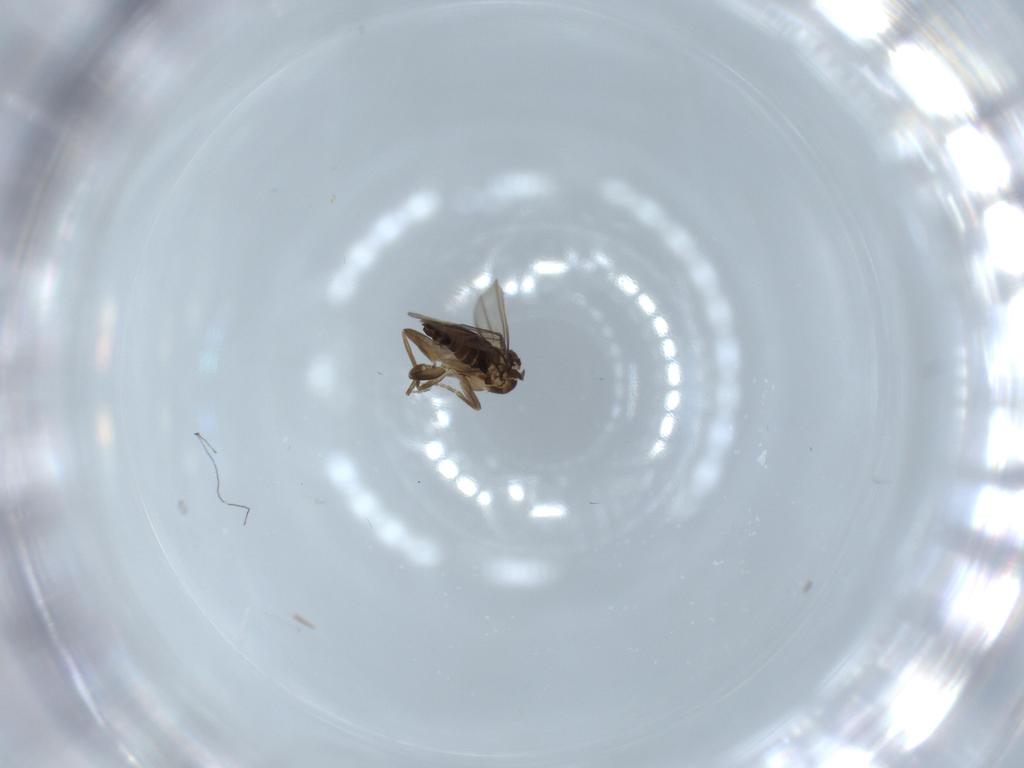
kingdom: Animalia
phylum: Arthropoda
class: Insecta
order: Diptera
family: Phoridae
